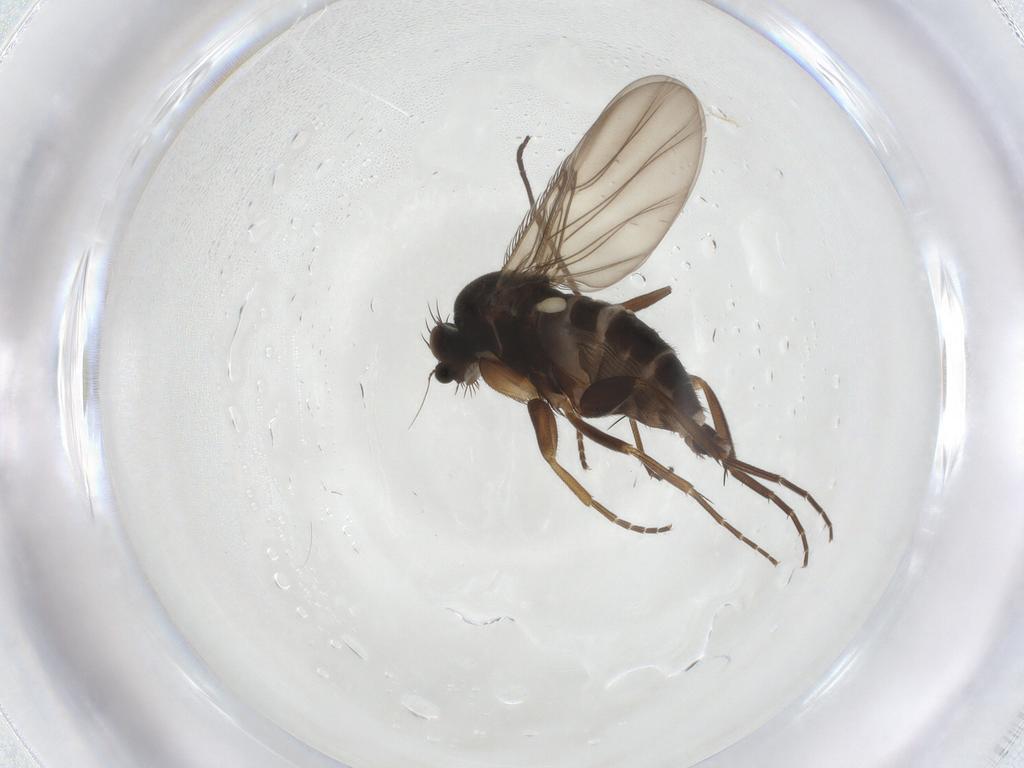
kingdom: Animalia
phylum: Arthropoda
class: Insecta
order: Diptera
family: Phoridae
